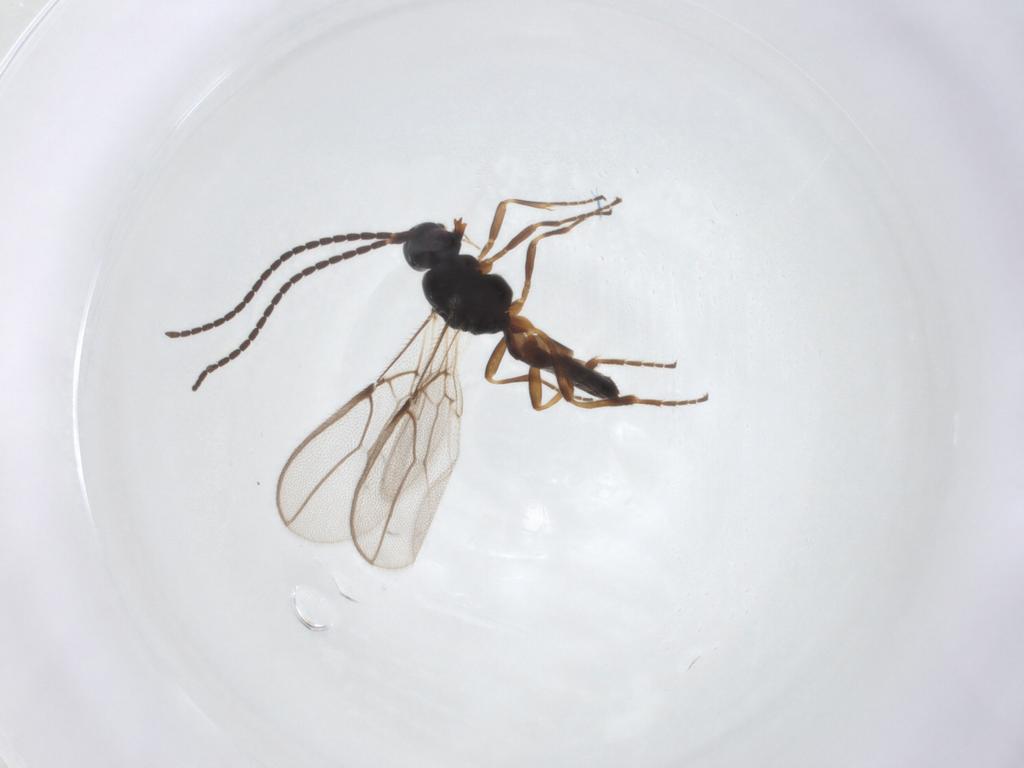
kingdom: Animalia
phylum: Arthropoda
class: Insecta
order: Hymenoptera
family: Braconidae
